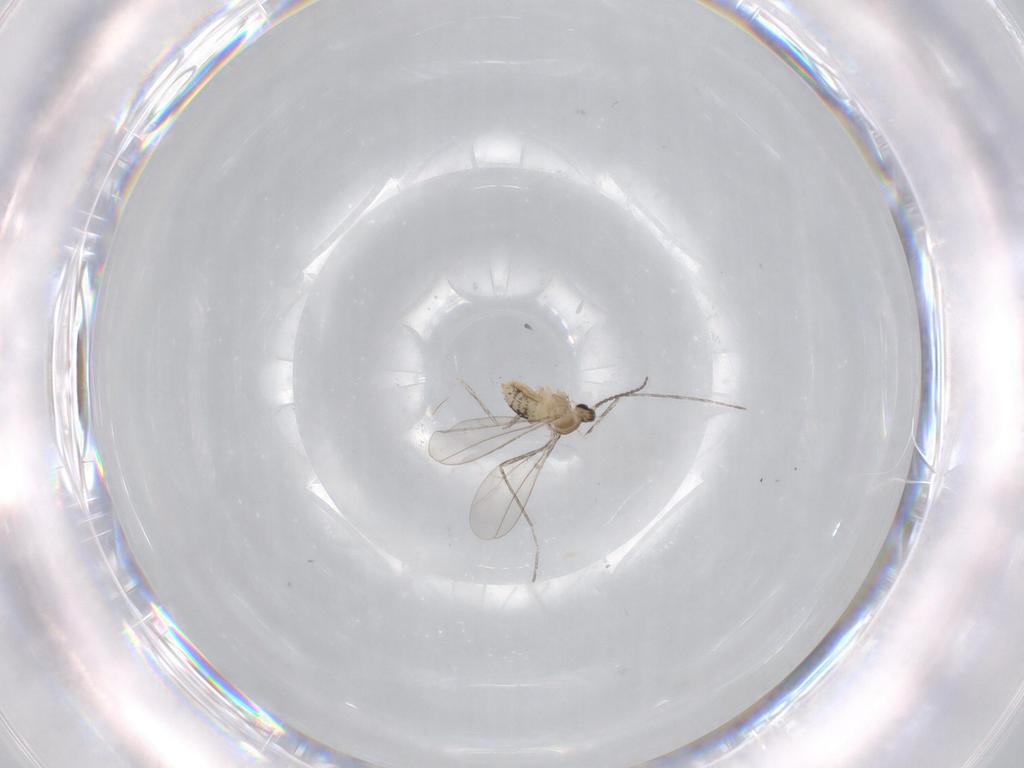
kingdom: Animalia
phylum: Arthropoda
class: Insecta
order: Diptera
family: Cecidomyiidae
